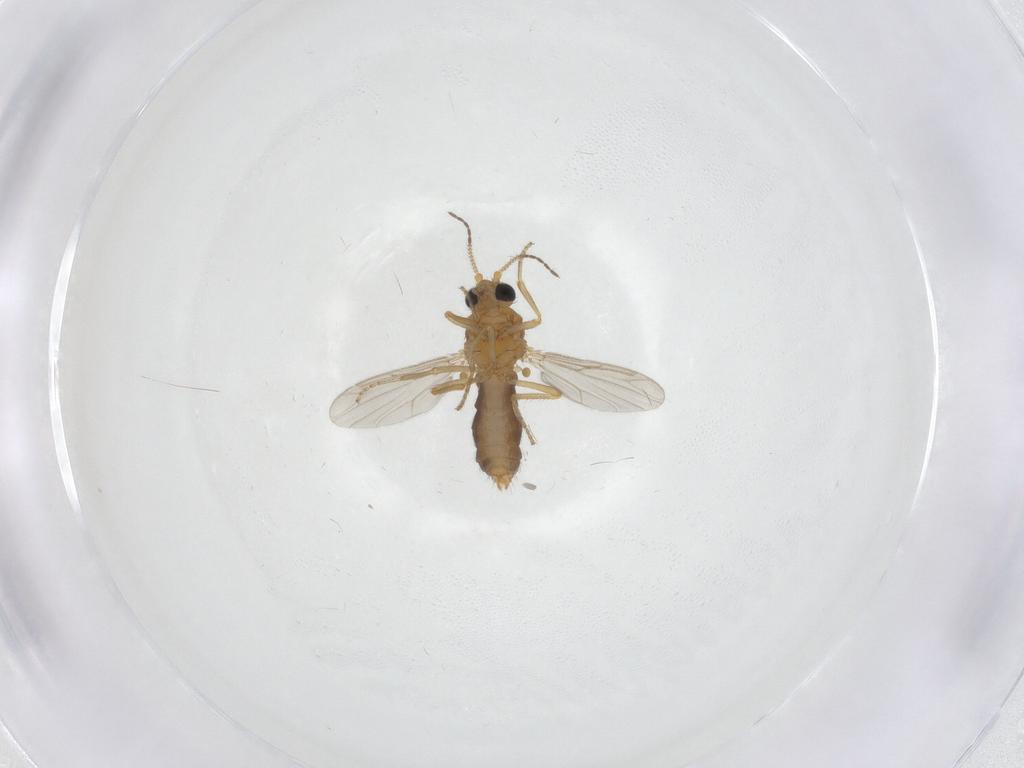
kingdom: Animalia
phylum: Arthropoda
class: Insecta
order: Diptera
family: Ceratopogonidae
